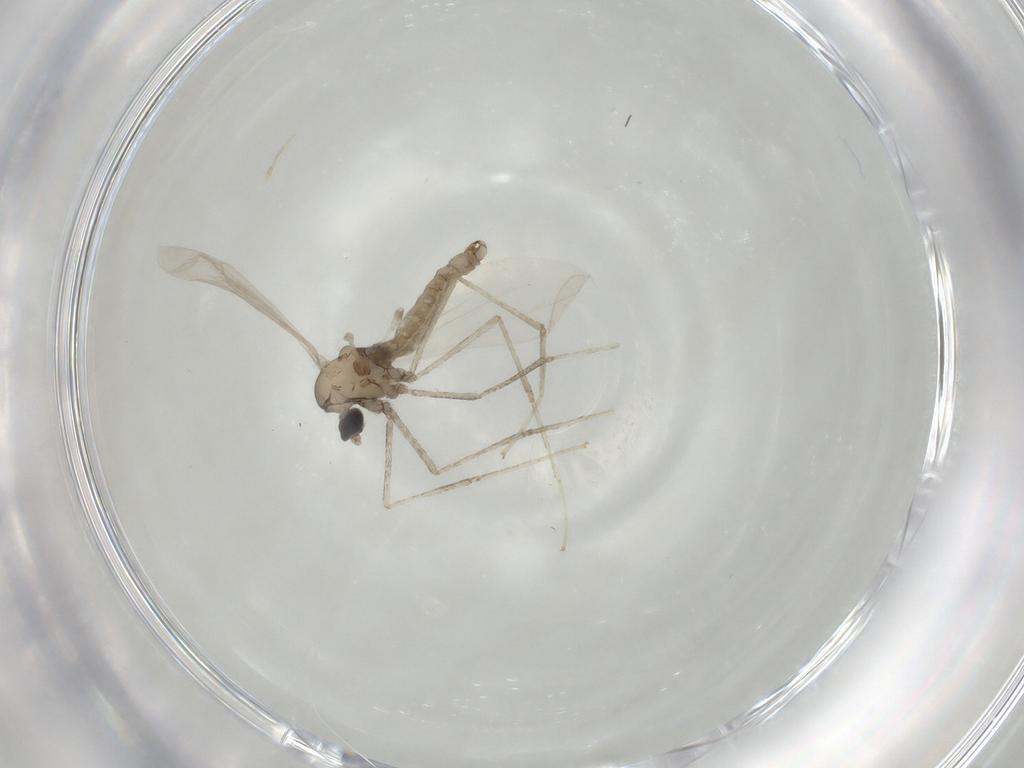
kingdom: Animalia
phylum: Arthropoda
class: Insecta
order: Diptera
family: Cecidomyiidae
